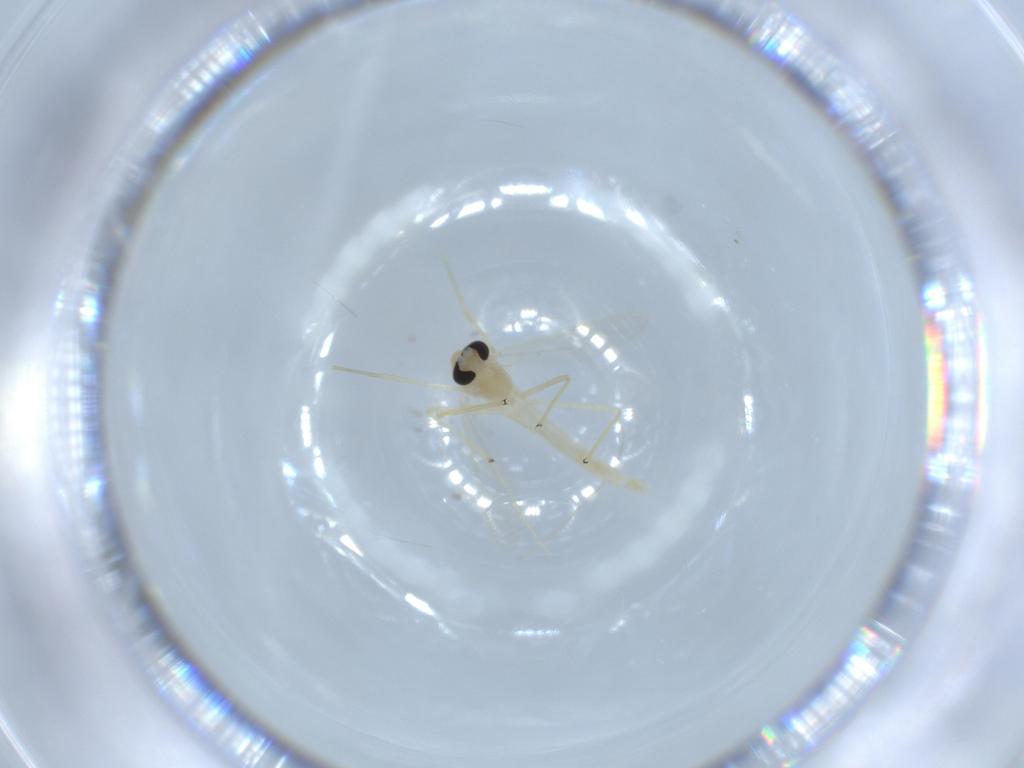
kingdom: Animalia
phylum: Arthropoda
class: Insecta
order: Diptera
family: Chironomidae
